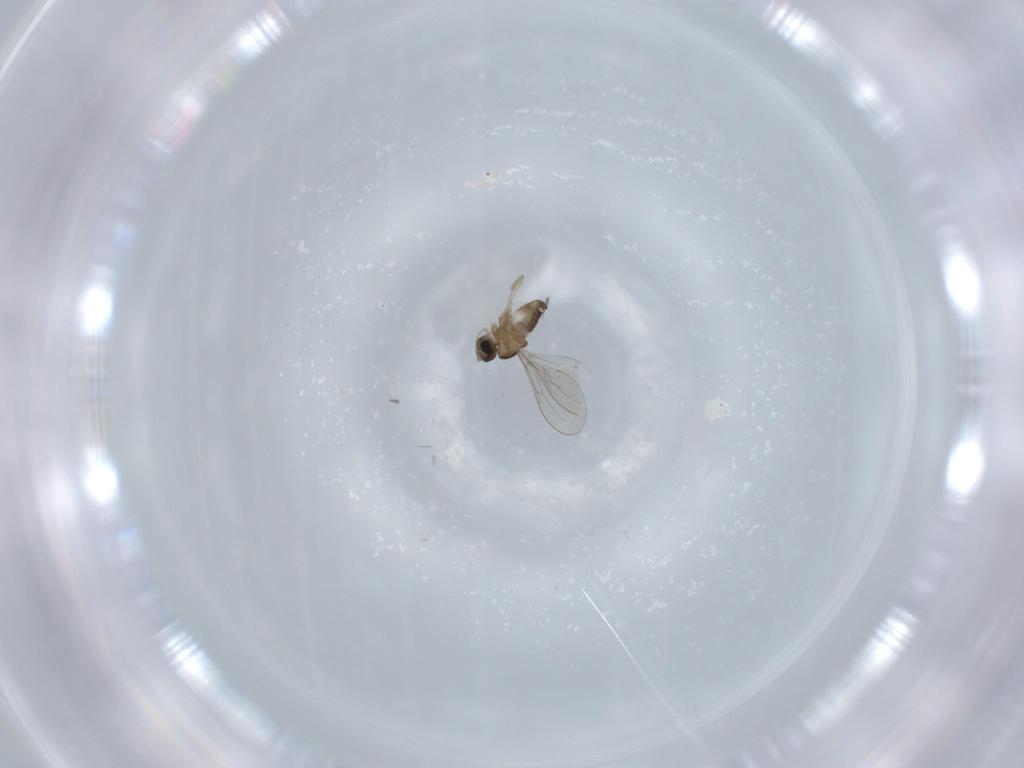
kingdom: Animalia
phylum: Arthropoda
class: Insecta
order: Diptera
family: Cecidomyiidae
